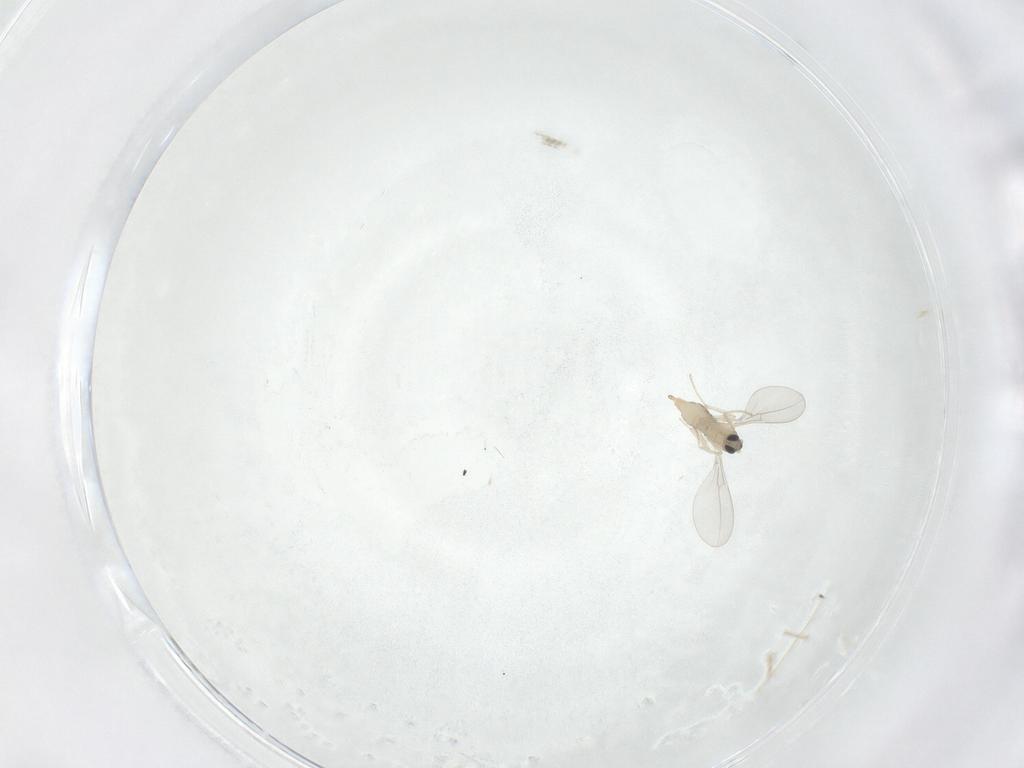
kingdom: Animalia
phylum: Arthropoda
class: Insecta
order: Diptera
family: Cecidomyiidae
